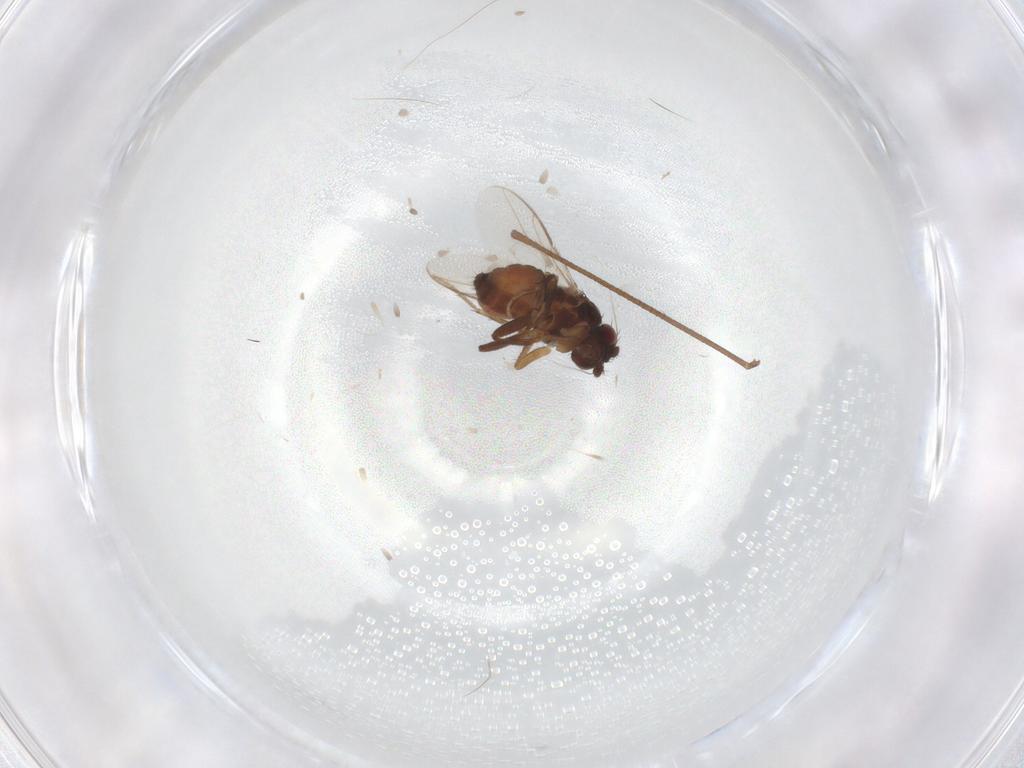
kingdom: Animalia
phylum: Arthropoda
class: Insecta
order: Diptera
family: Sphaeroceridae
